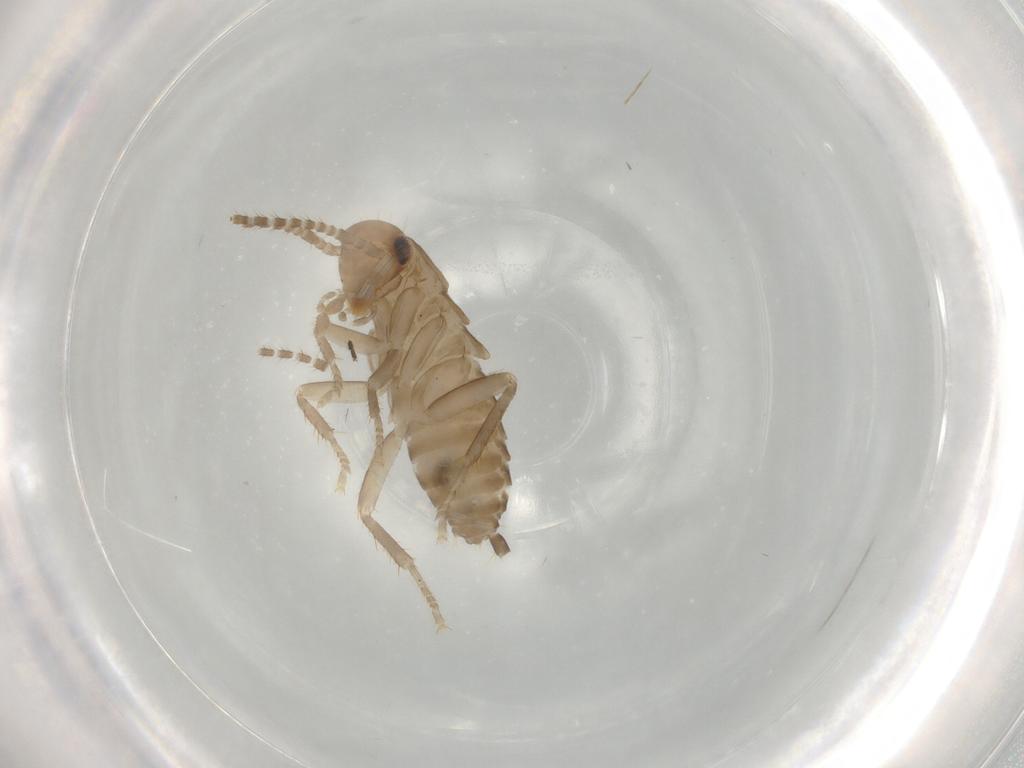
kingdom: Animalia
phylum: Arthropoda
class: Insecta
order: Blattodea
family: Ectobiidae
